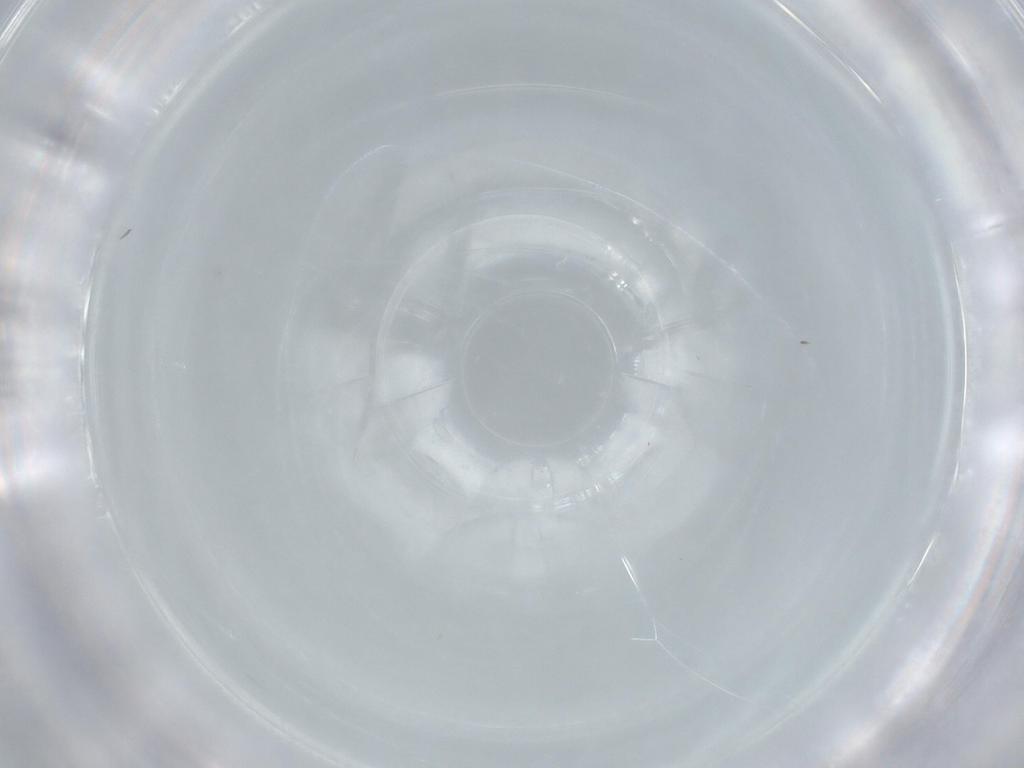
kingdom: Animalia
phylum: Arthropoda
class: Insecta
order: Diptera
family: Sciaridae
